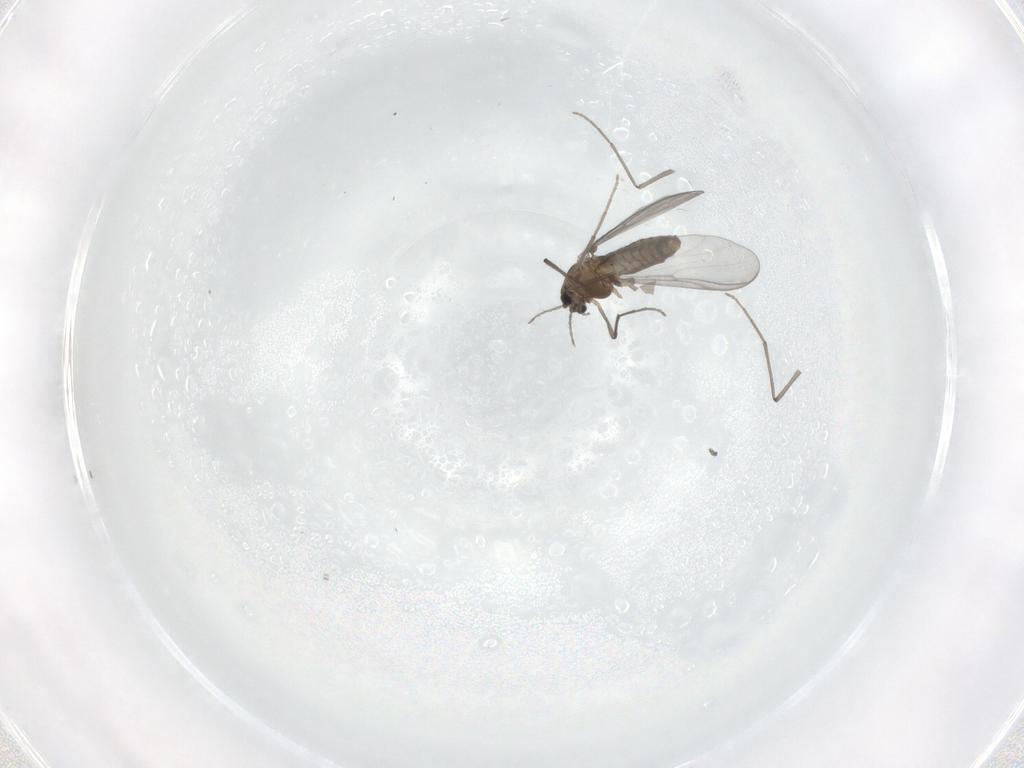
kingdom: Animalia
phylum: Arthropoda
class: Insecta
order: Diptera
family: Chironomidae
